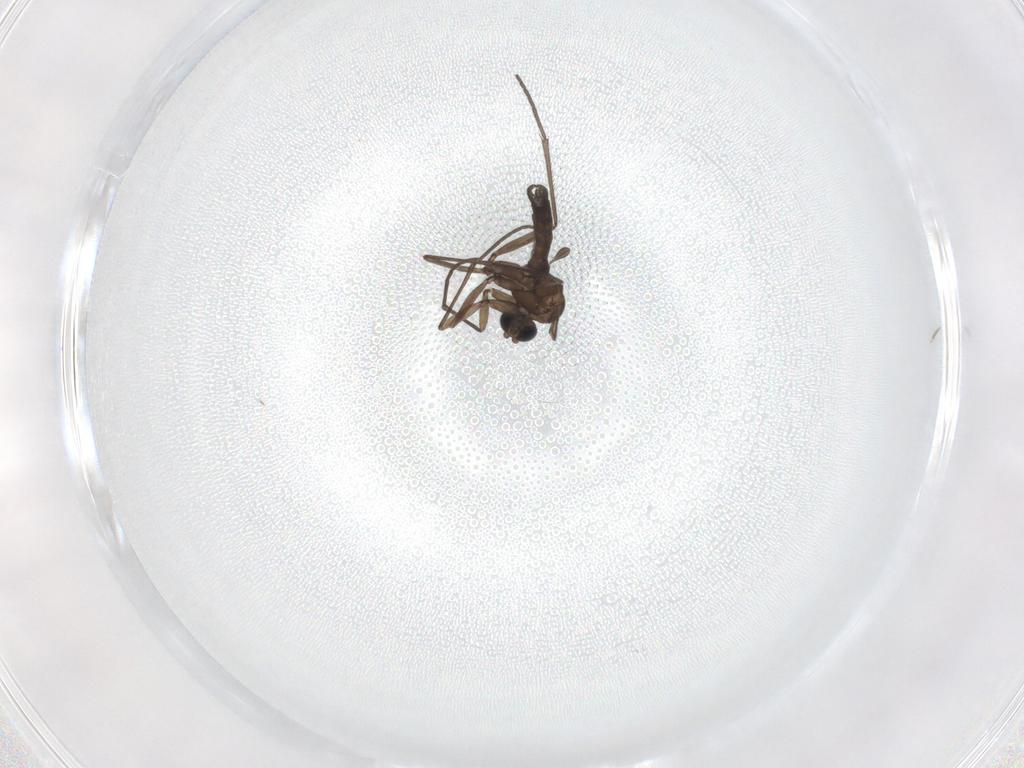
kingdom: Animalia
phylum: Arthropoda
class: Insecta
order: Diptera
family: Sciaridae
